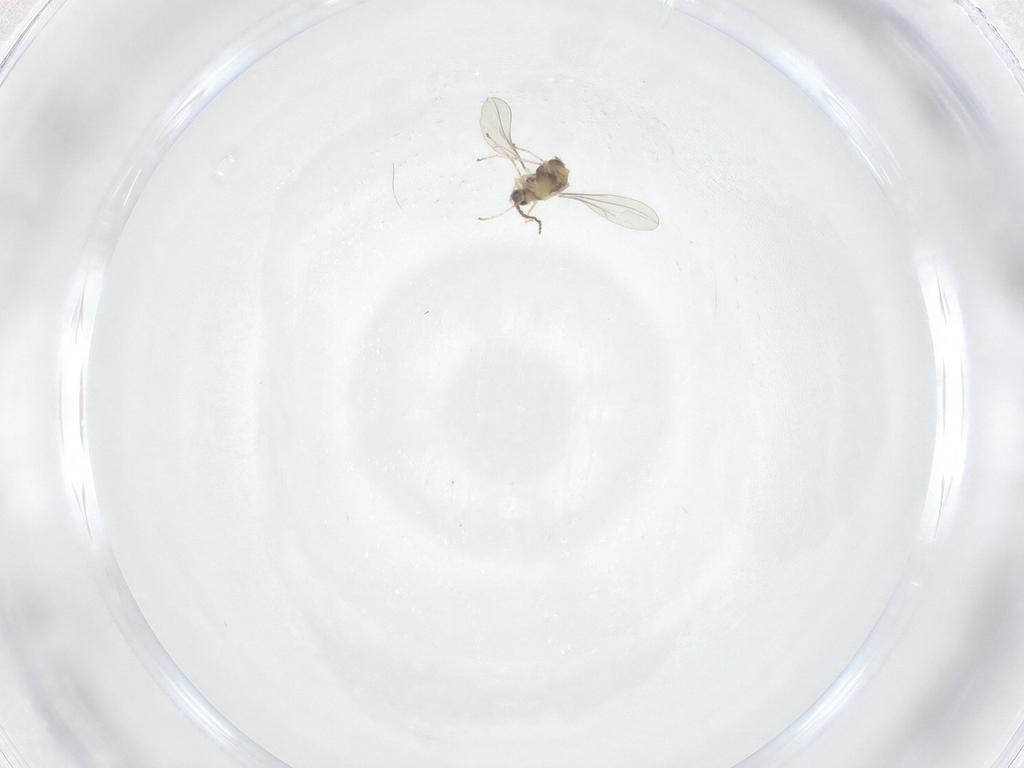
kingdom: Animalia
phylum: Arthropoda
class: Insecta
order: Diptera
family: Cecidomyiidae
